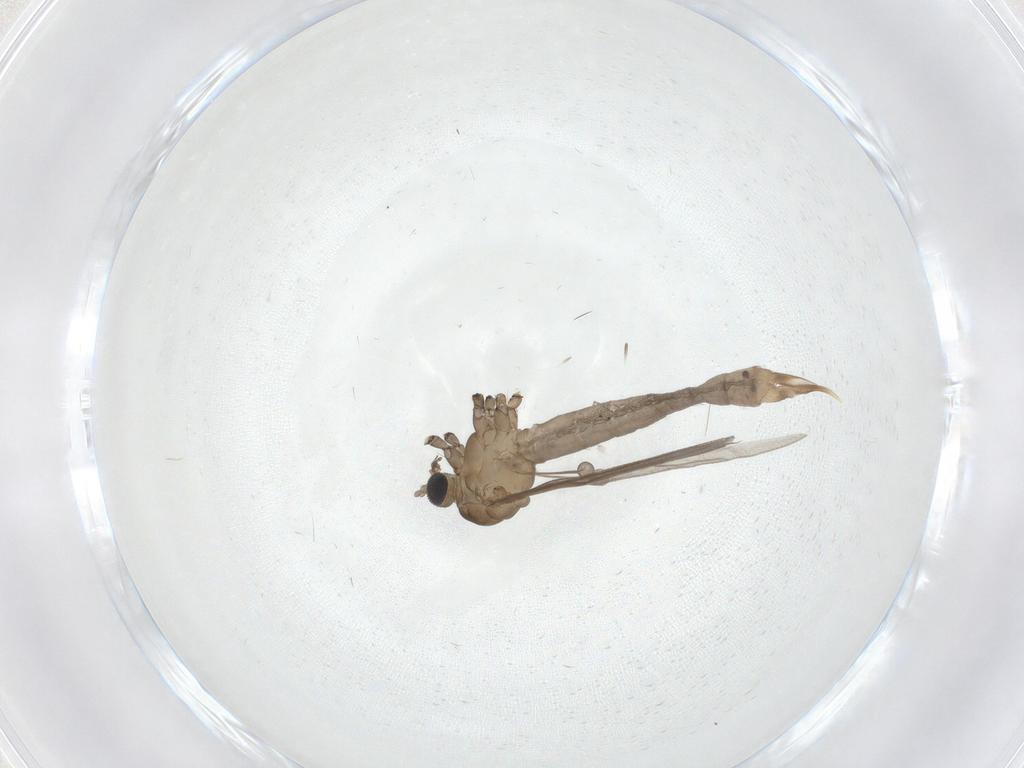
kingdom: Animalia
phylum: Arthropoda
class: Insecta
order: Diptera
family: Limoniidae
